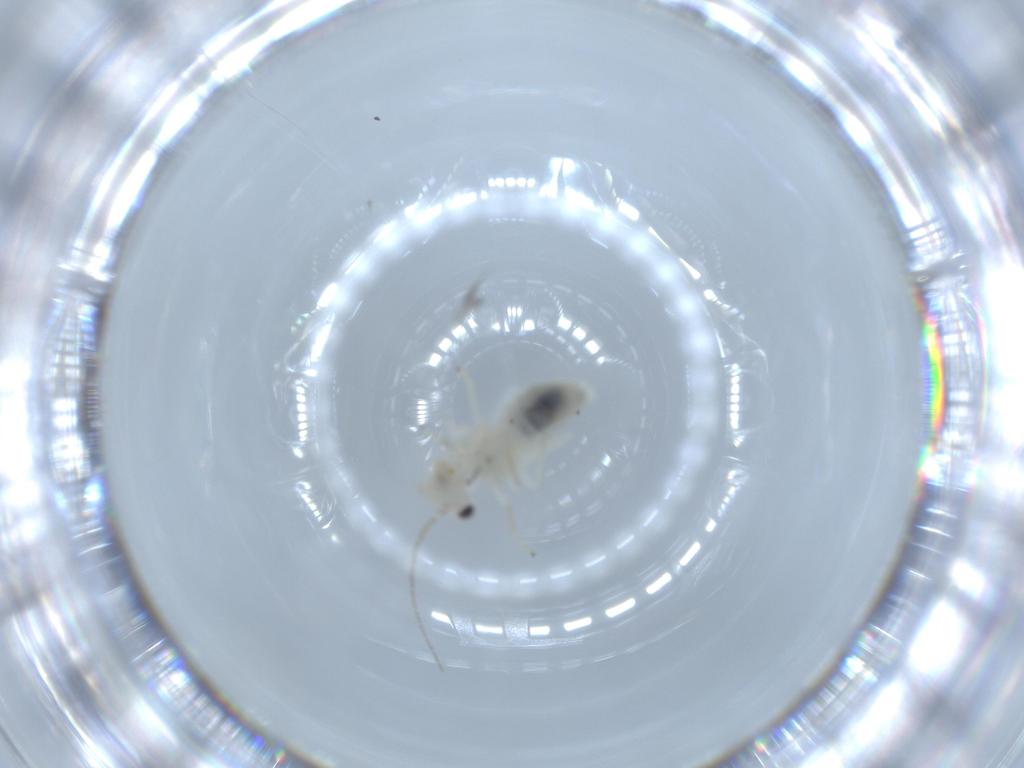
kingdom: Animalia
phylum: Arthropoda
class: Insecta
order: Psocodea
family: Caeciliusidae
